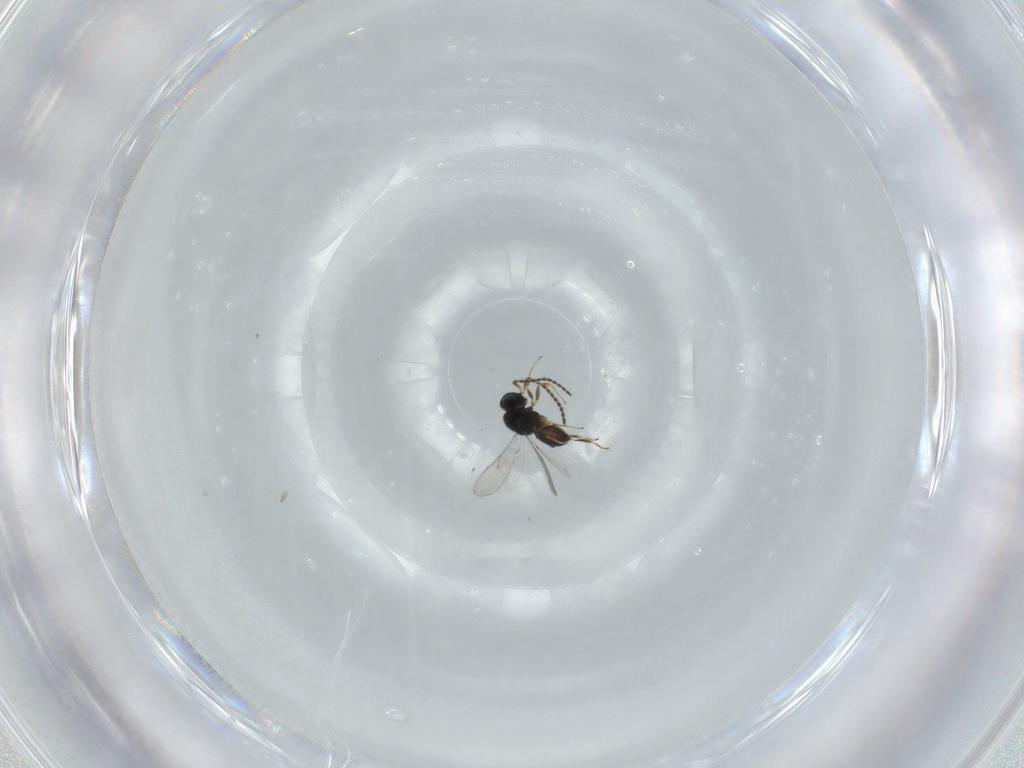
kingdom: Animalia
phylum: Arthropoda
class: Insecta
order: Hymenoptera
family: Scelionidae
